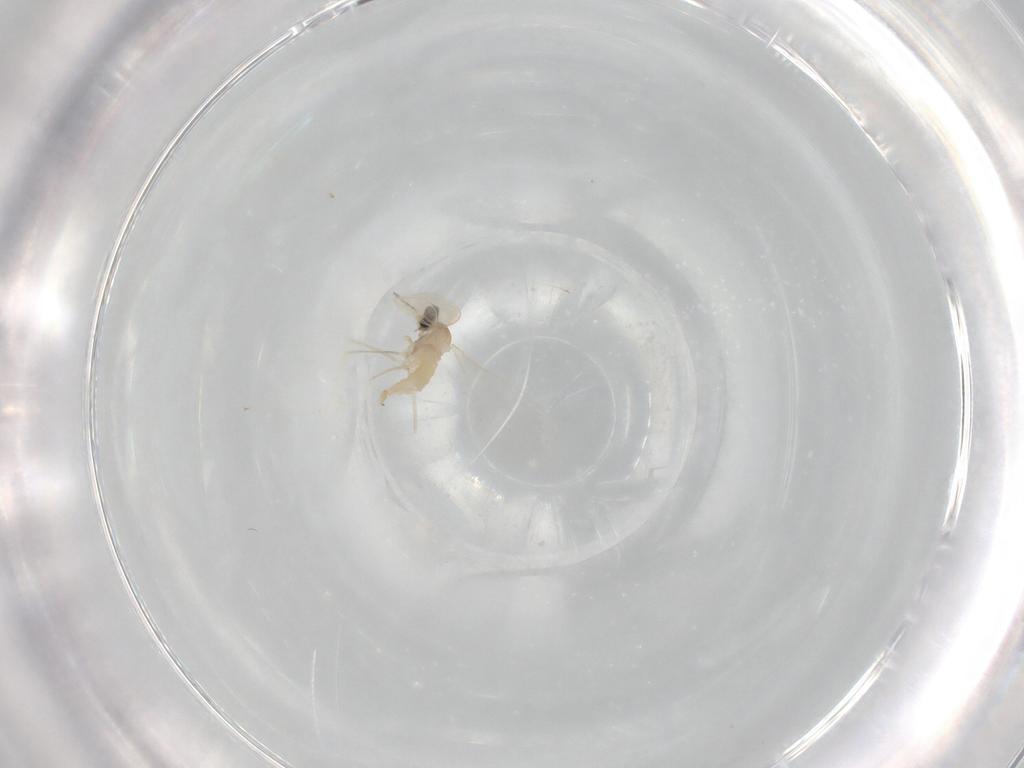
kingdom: Animalia
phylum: Arthropoda
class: Insecta
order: Diptera
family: Cecidomyiidae
